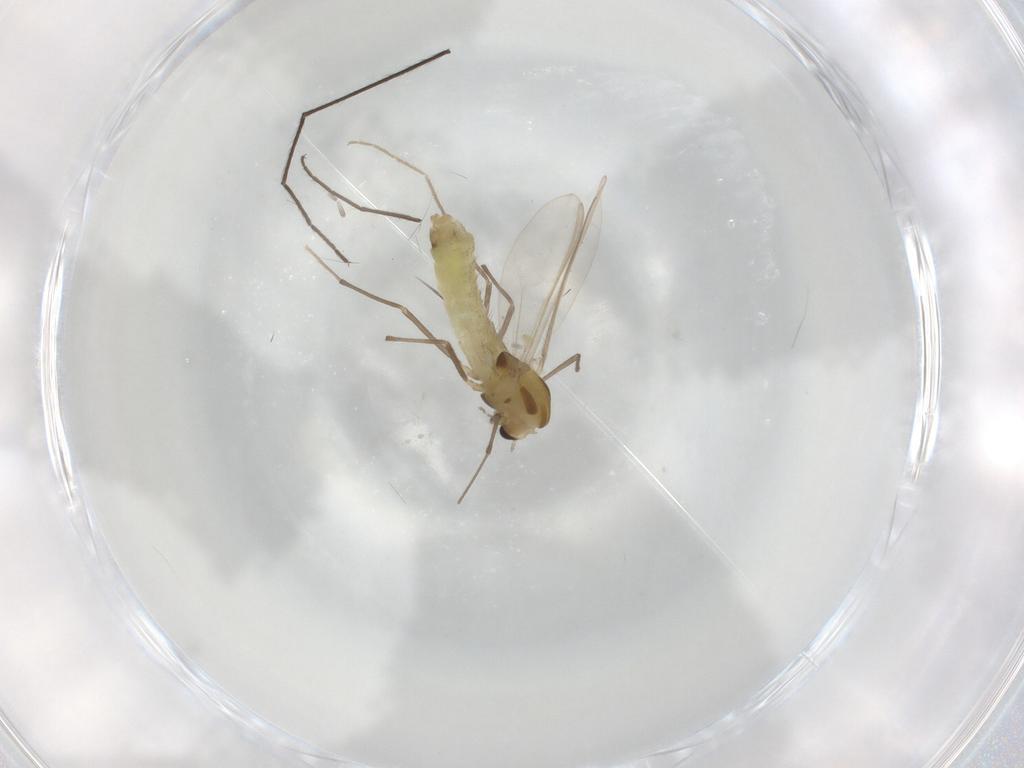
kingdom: Animalia
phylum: Arthropoda
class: Insecta
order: Diptera
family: Chironomidae
